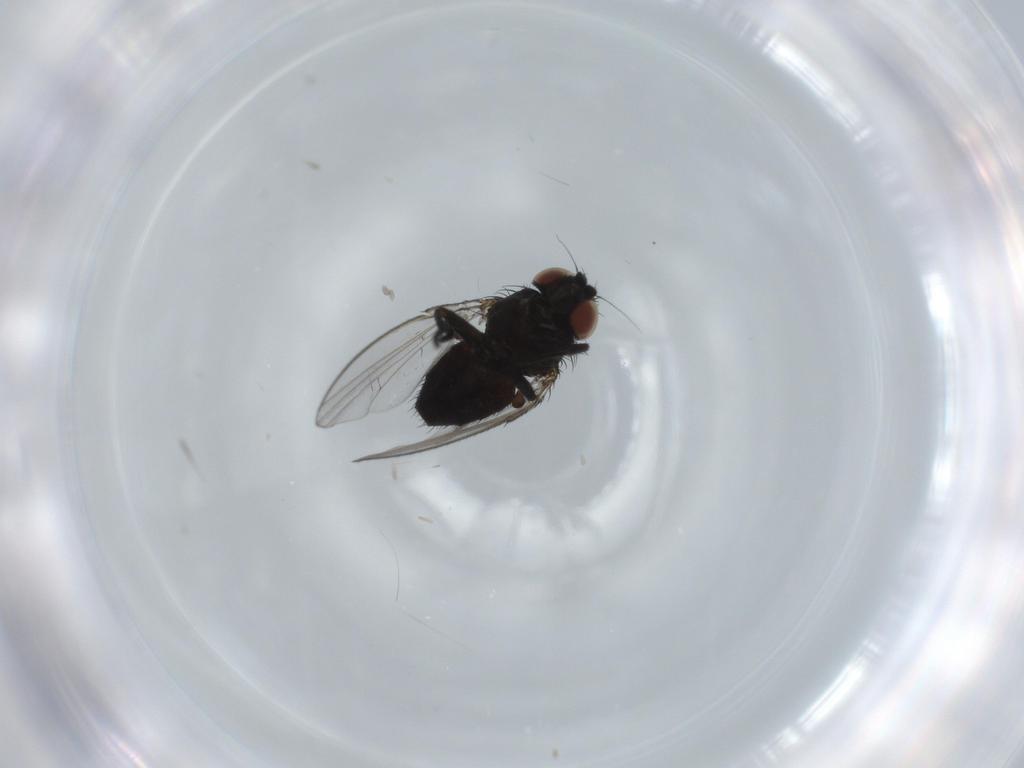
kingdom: Animalia
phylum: Arthropoda
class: Insecta
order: Diptera
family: Milichiidae
